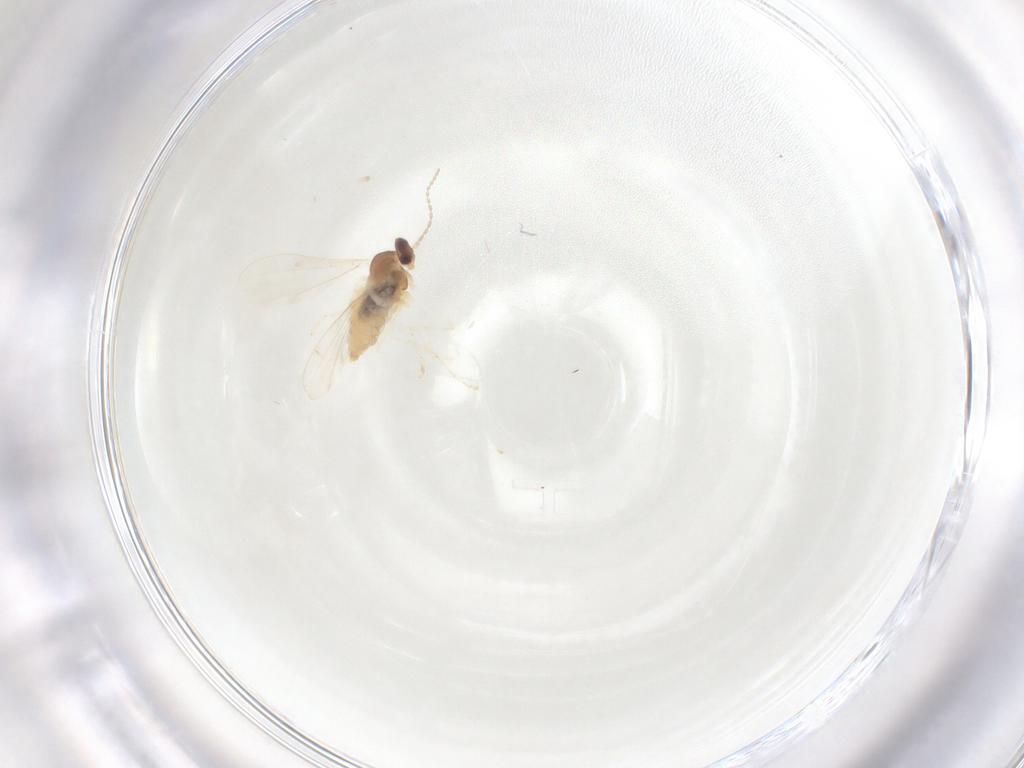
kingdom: Animalia
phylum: Arthropoda
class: Insecta
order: Diptera
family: Cecidomyiidae
